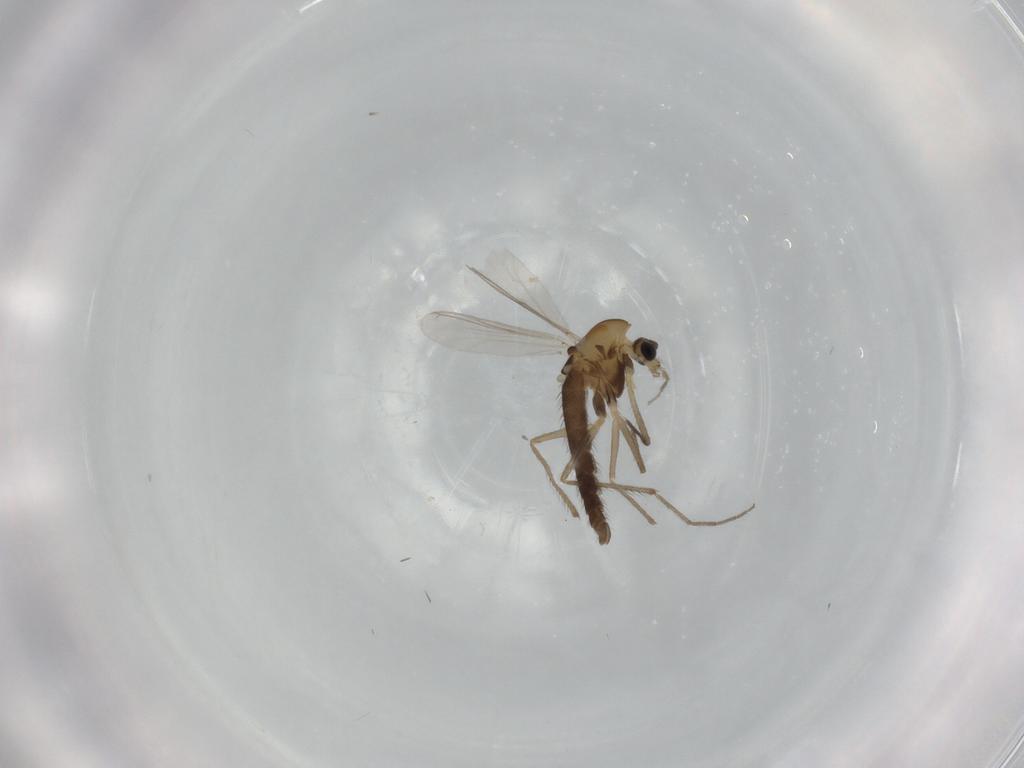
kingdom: Animalia
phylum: Arthropoda
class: Insecta
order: Diptera
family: Chironomidae
